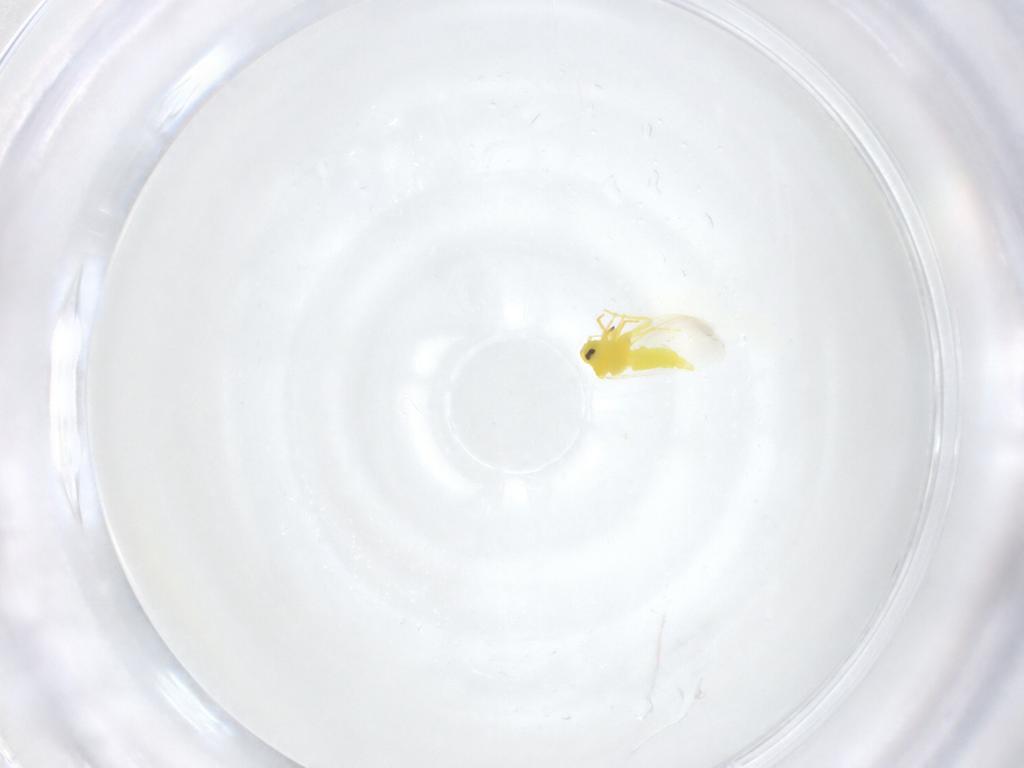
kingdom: Animalia
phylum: Arthropoda
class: Insecta
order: Hemiptera
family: Aleyrodidae
